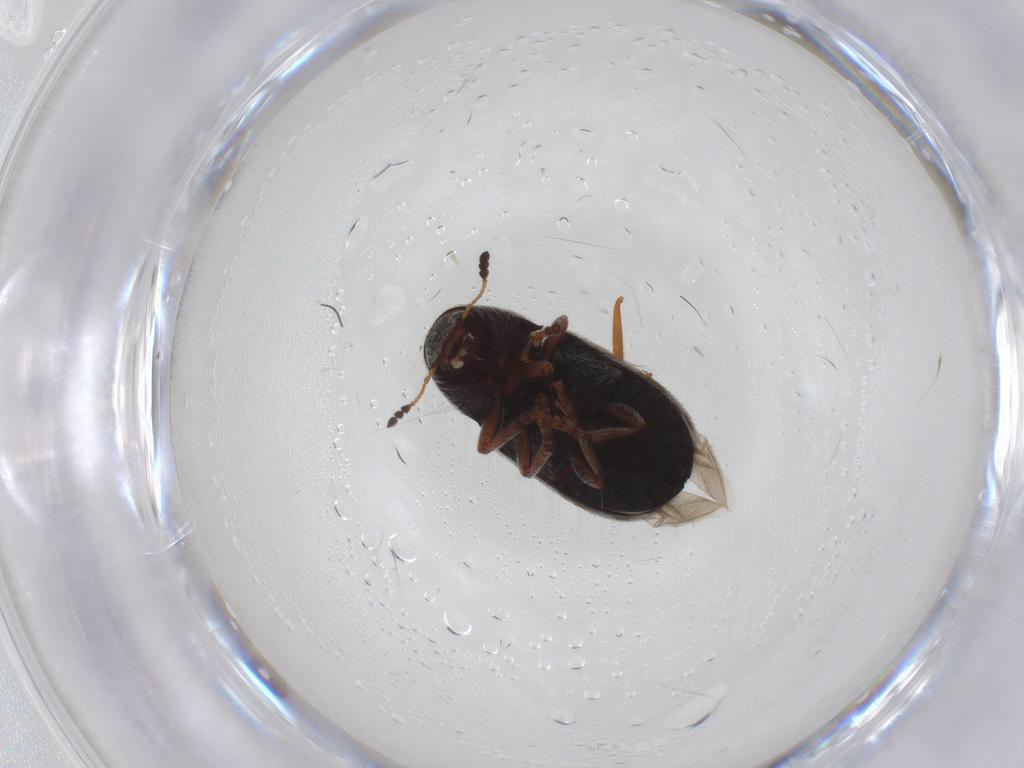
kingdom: Animalia
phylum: Arthropoda
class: Insecta
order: Coleoptera
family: Anthribidae
